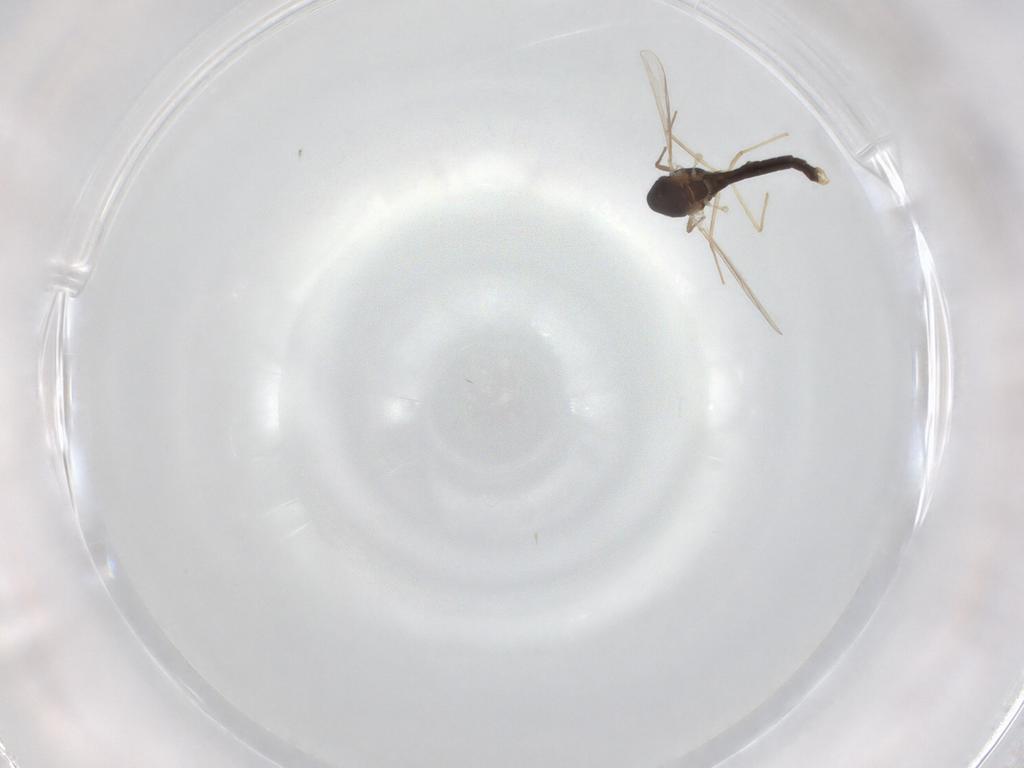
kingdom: Animalia
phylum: Arthropoda
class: Insecta
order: Diptera
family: Chironomidae
